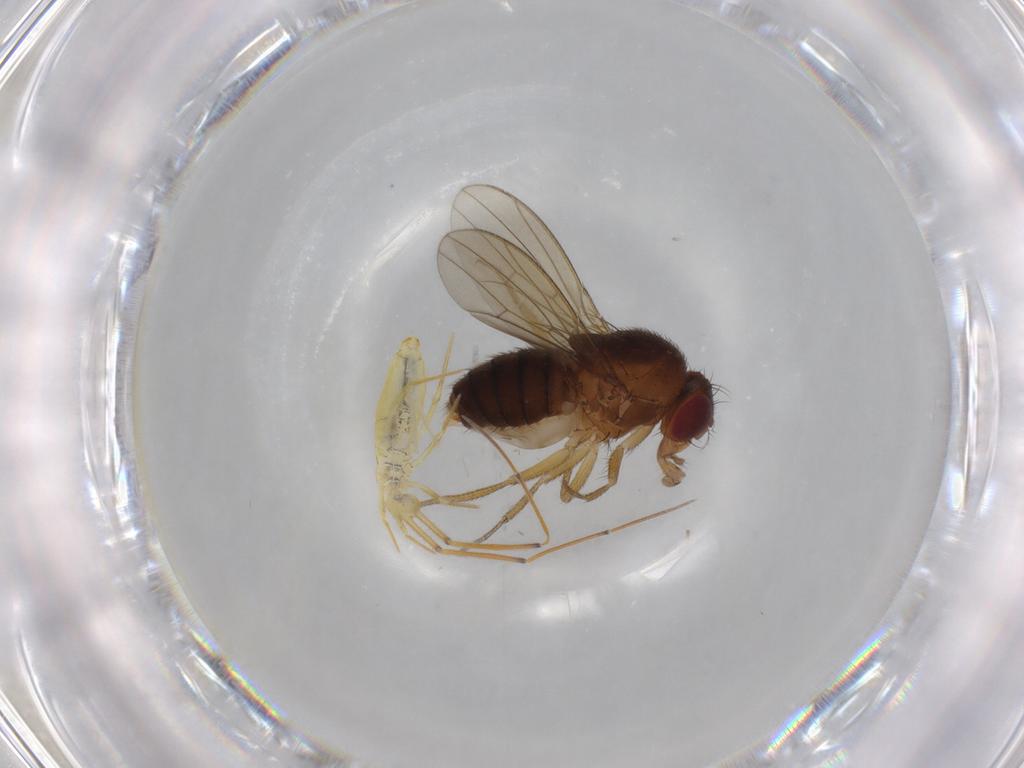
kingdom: Animalia
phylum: Arthropoda
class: Insecta
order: Diptera
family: Drosophilidae
